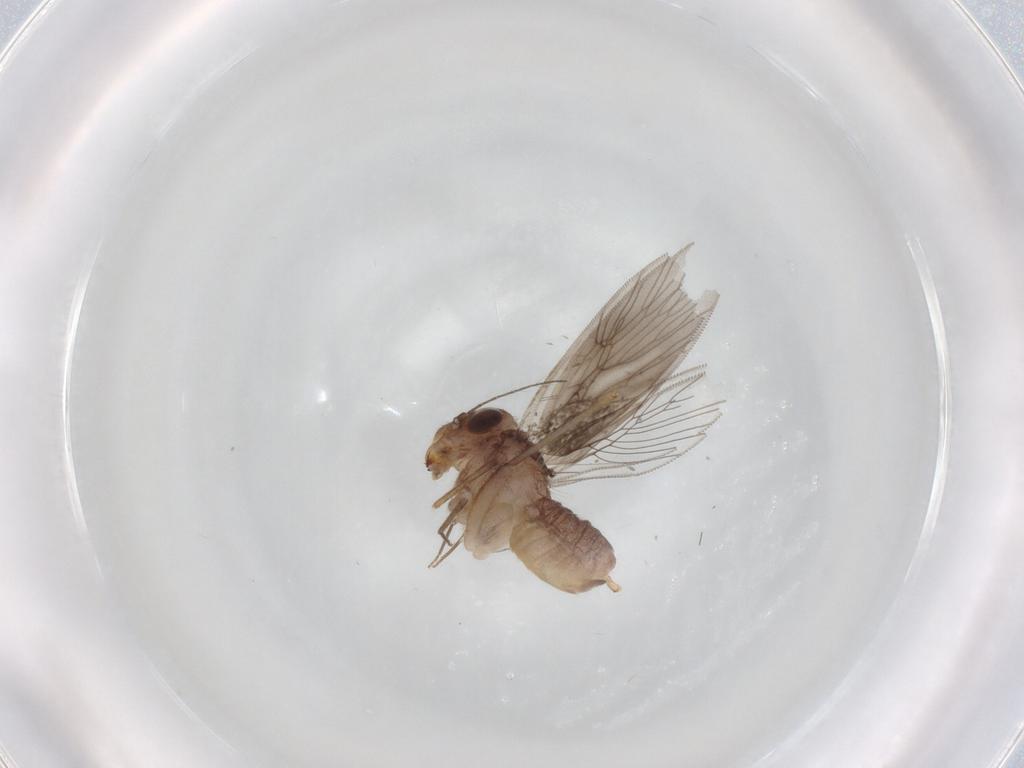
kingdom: Animalia
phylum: Arthropoda
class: Insecta
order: Psocodea
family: Lepidopsocidae
